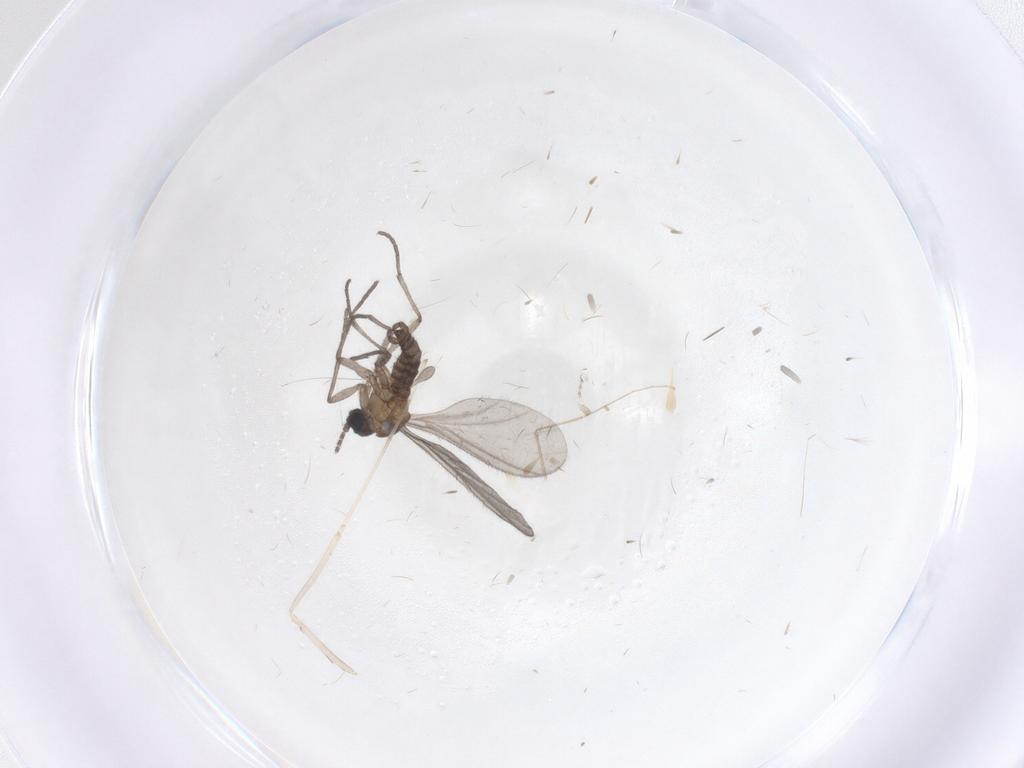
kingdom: Animalia
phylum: Arthropoda
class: Insecta
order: Diptera
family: Sciaridae
